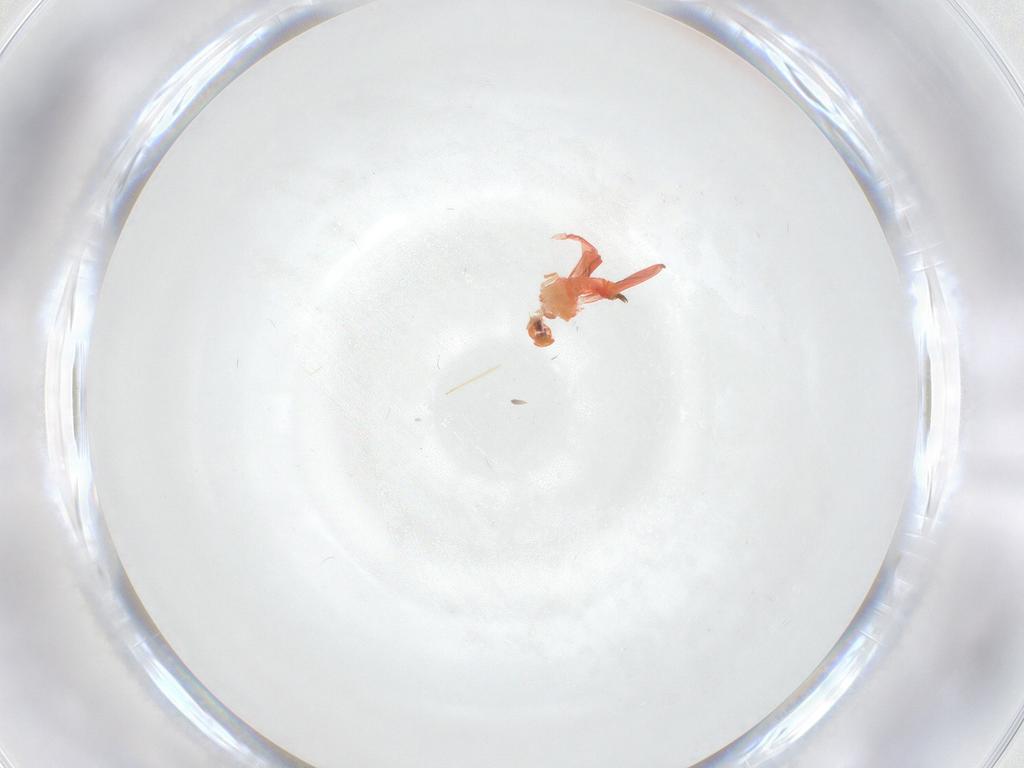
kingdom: Animalia
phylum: Arthropoda
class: Insecta
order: Hemiptera
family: Aleyrodidae
